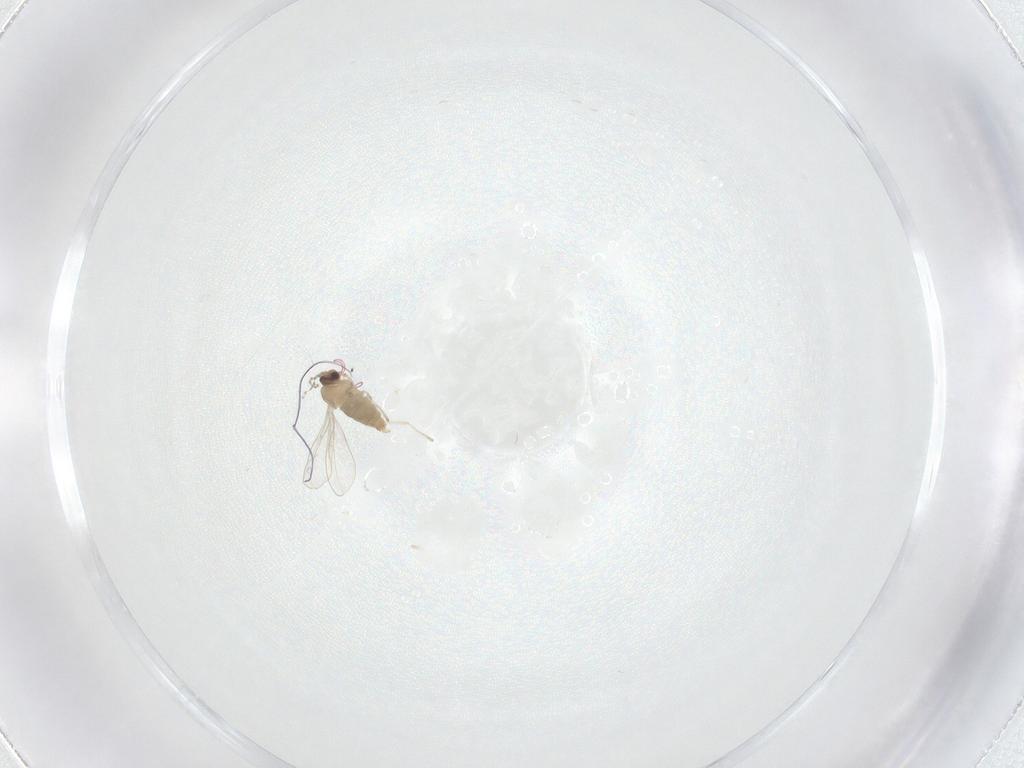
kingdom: Animalia
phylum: Arthropoda
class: Insecta
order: Diptera
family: Cecidomyiidae
